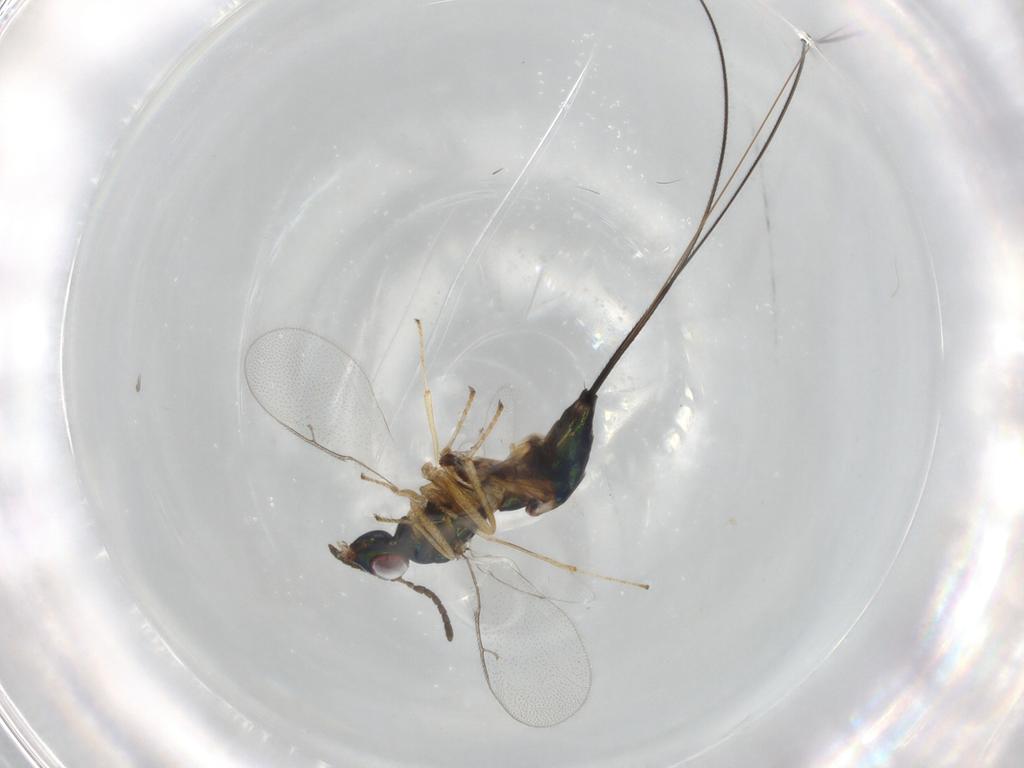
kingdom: Animalia
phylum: Arthropoda
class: Insecta
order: Hymenoptera
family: Pteromalidae
